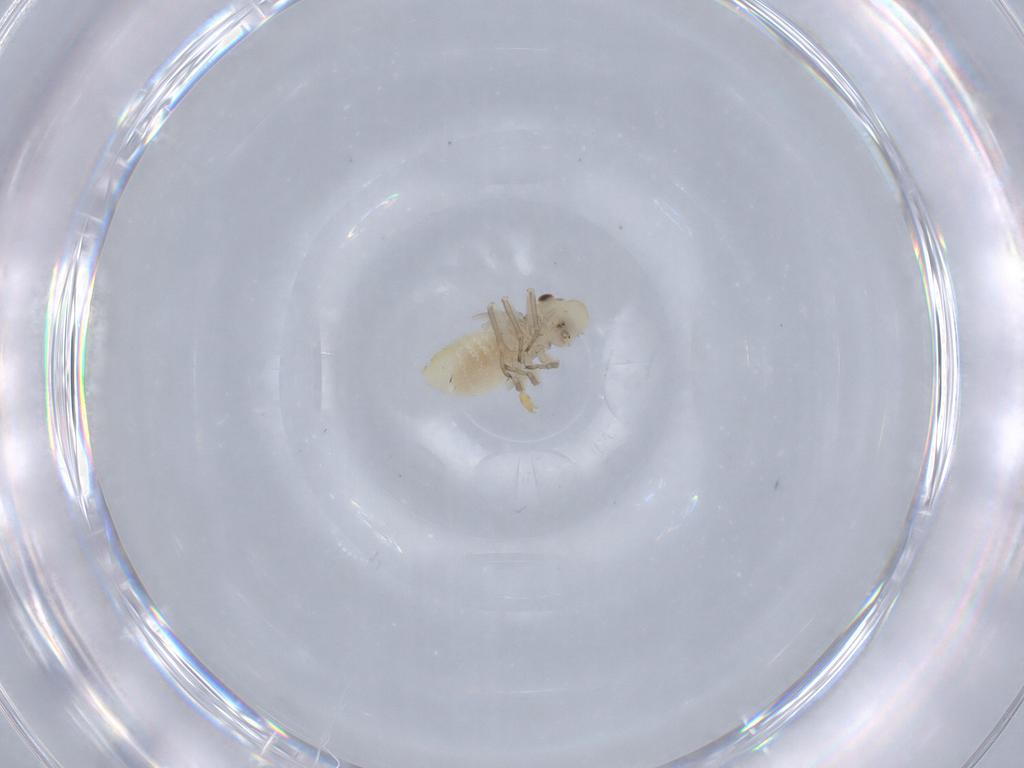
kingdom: Animalia
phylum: Arthropoda
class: Insecta
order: Psocodea
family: Caeciliusidae
